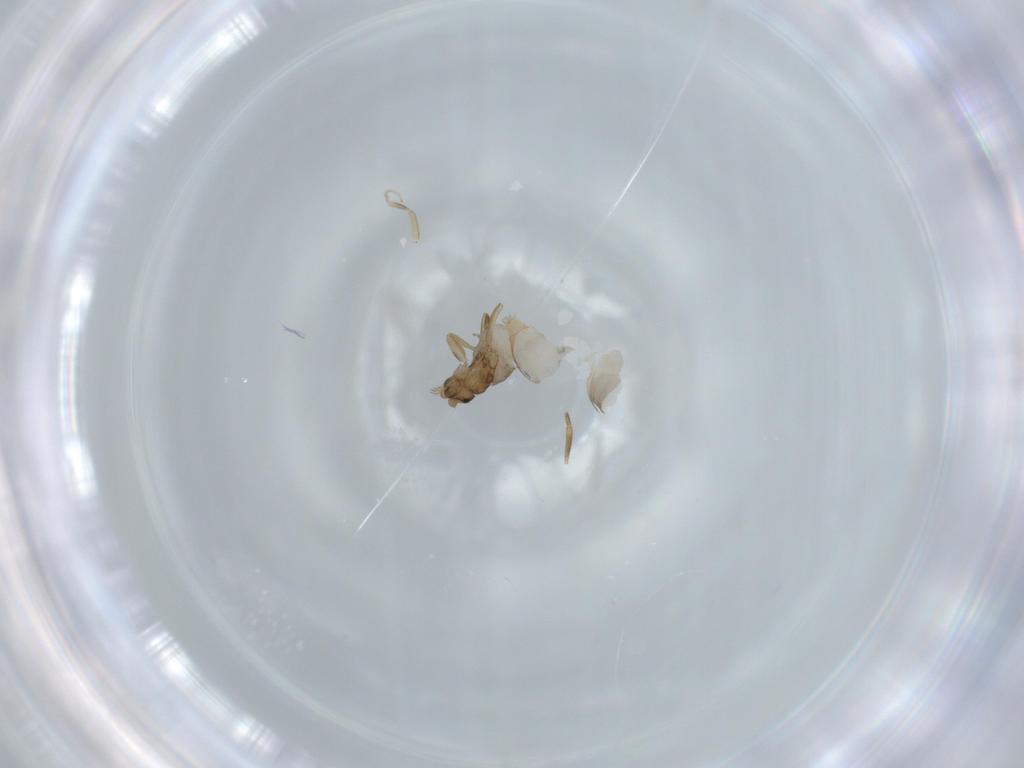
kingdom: Animalia
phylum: Arthropoda
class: Insecta
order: Diptera
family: Phoridae
